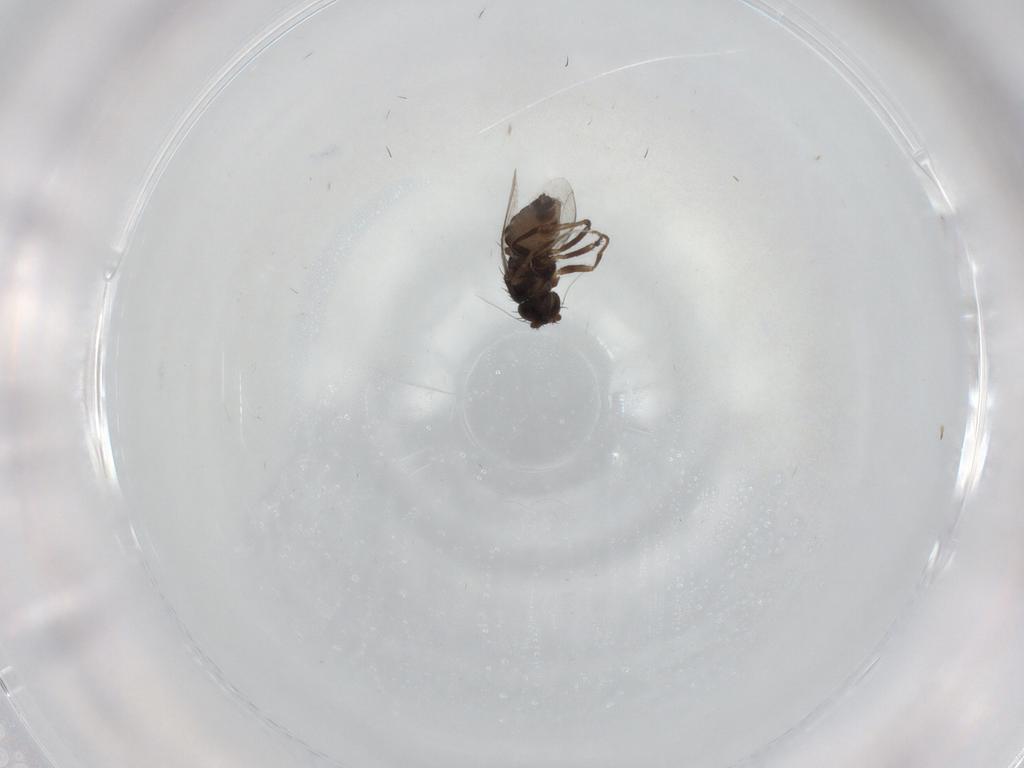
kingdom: Animalia
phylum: Arthropoda
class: Insecta
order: Diptera
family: Sphaeroceridae
